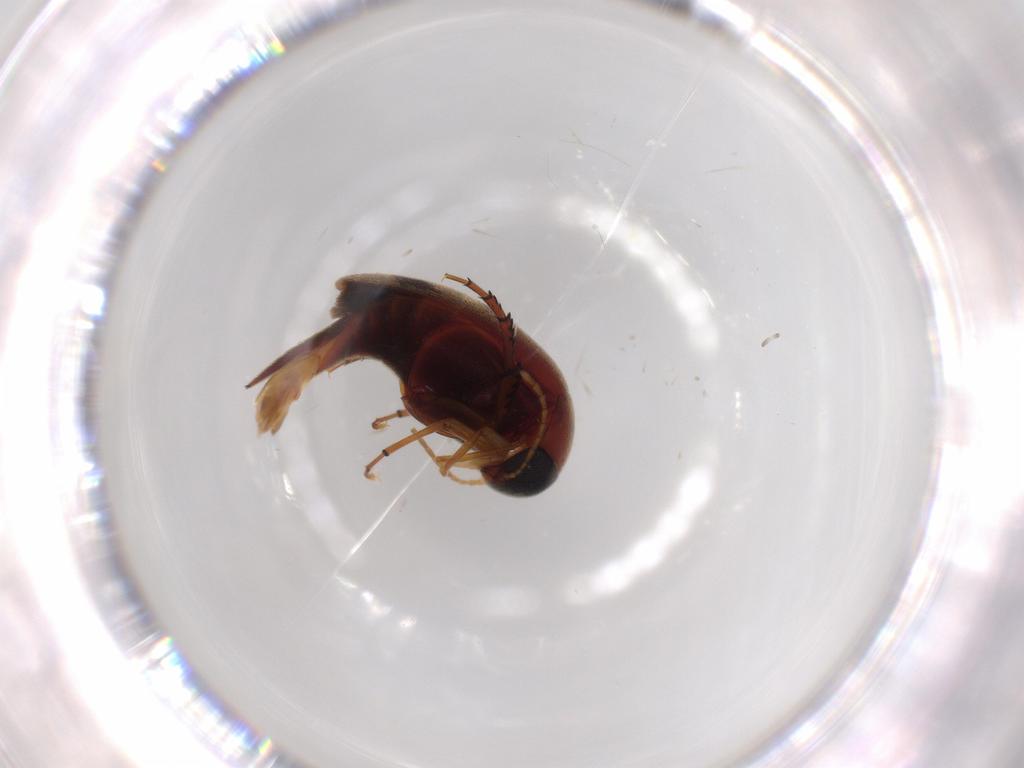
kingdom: Animalia
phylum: Arthropoda
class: Insecta
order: Coleoptera
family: Mordellidae
